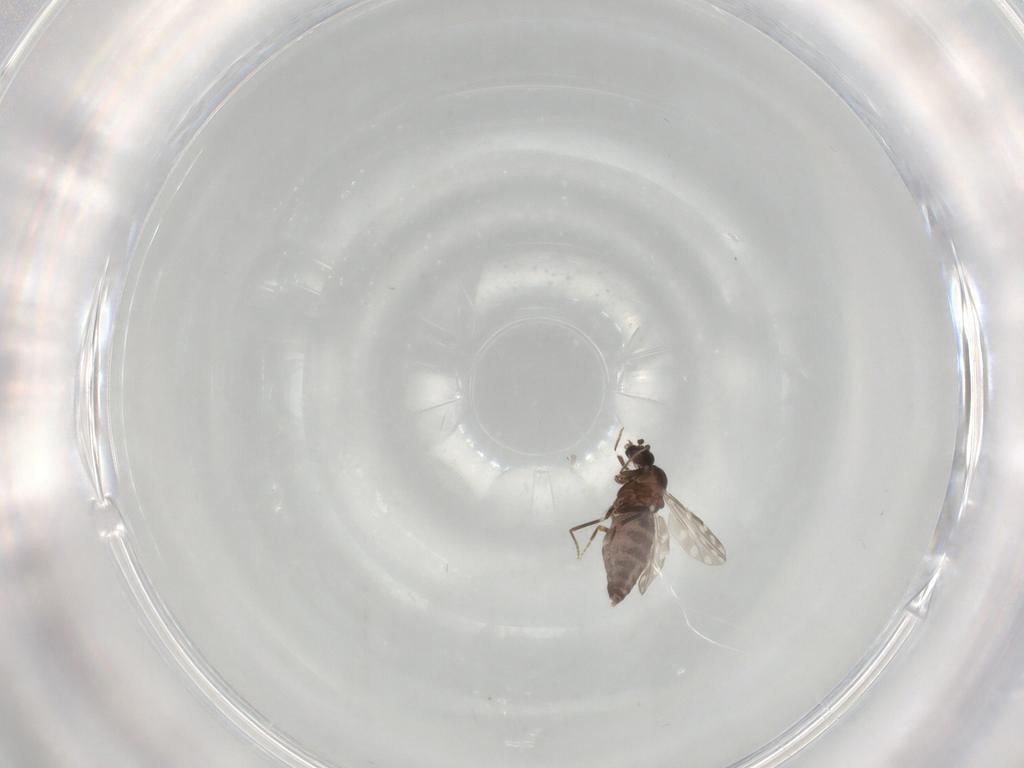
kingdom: Animalia
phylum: Arthropoda
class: Insecta
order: Diptera
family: Chironomidae
